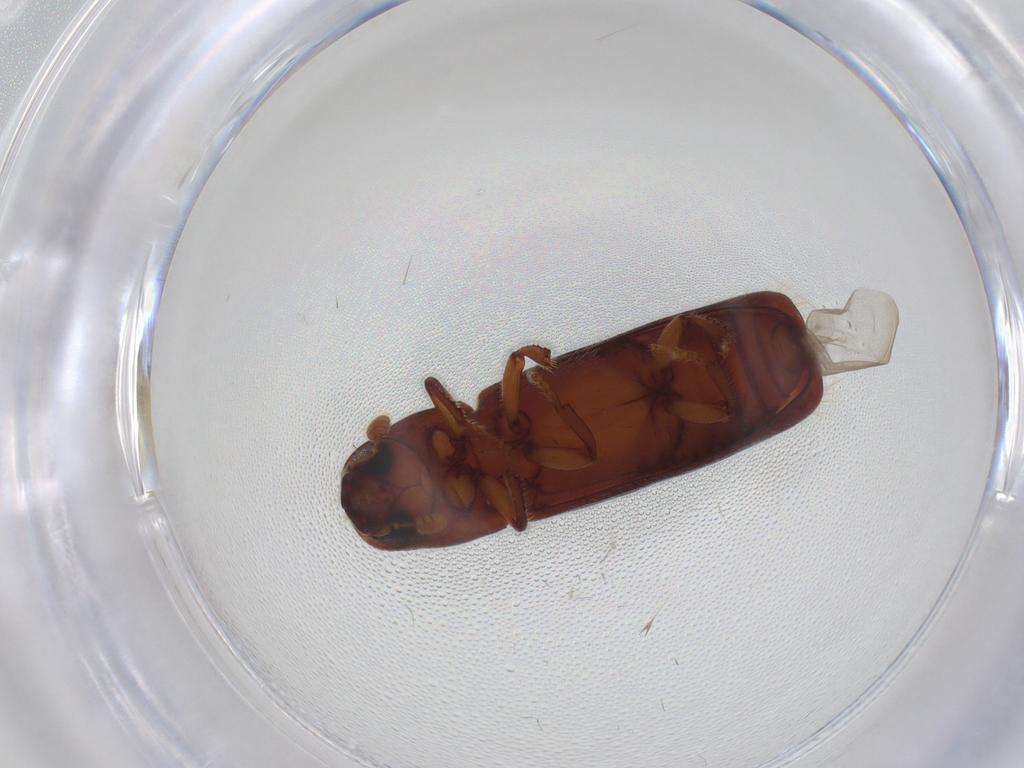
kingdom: Animalia
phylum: Arthropoda
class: Insecta
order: Coleoptera
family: Curculionidae
